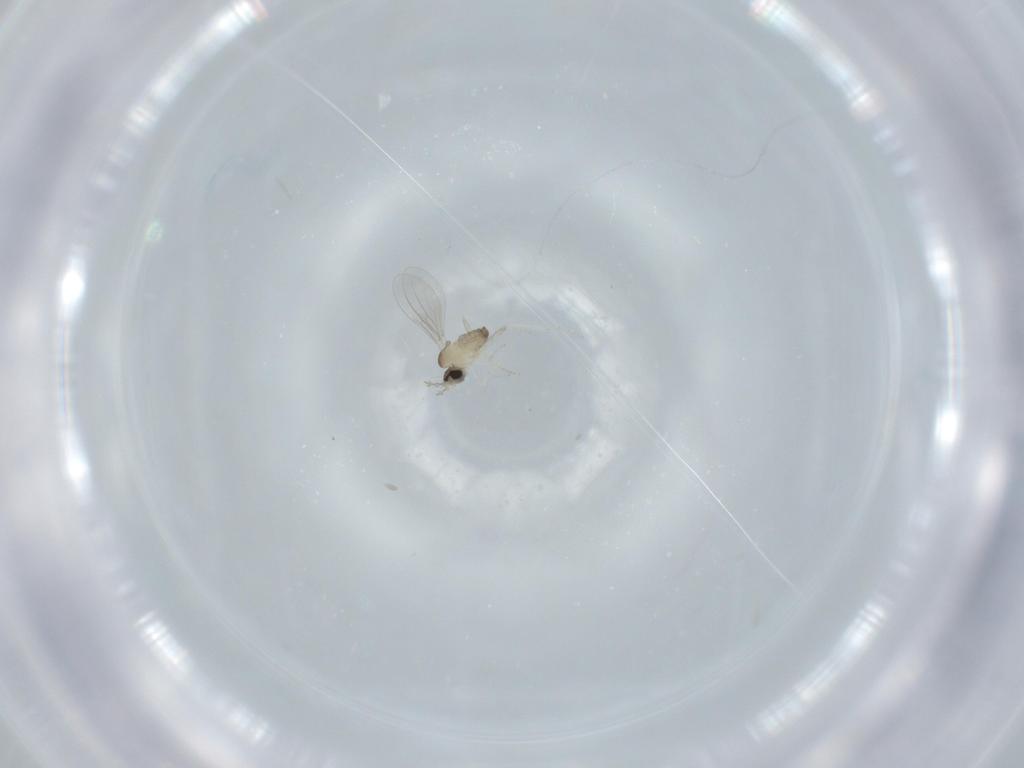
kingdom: Animalia
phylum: Arthropoda
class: Insecta
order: Diptera
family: Cecidomyiidae
